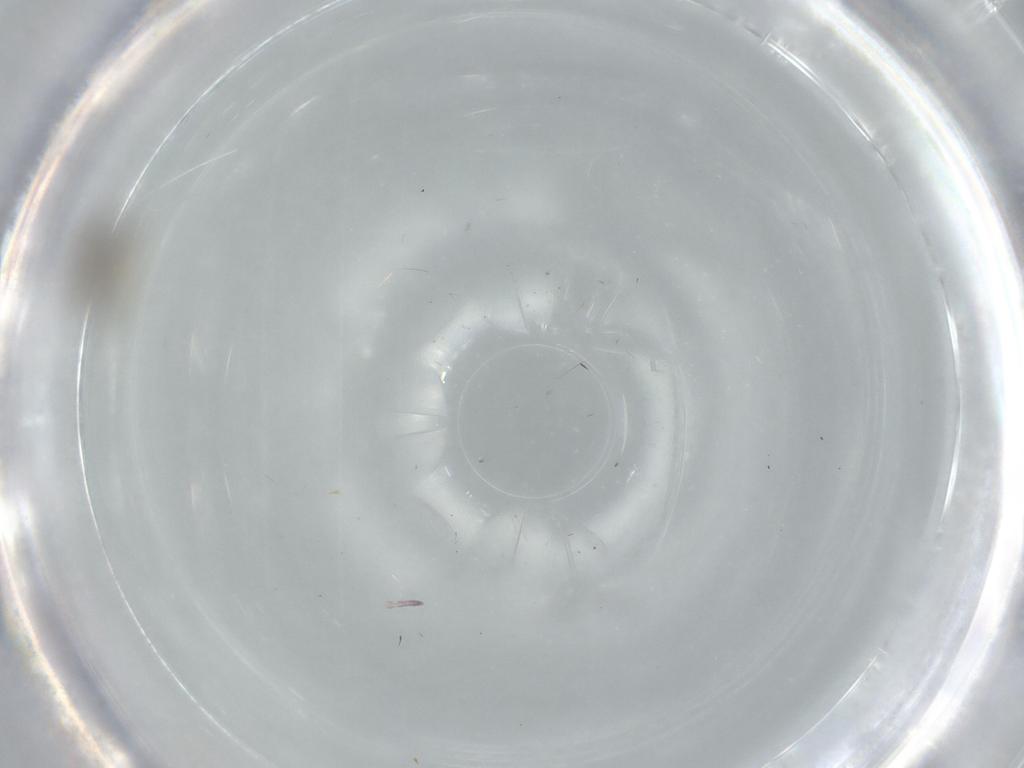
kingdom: Animalia
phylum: Arthropoda
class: Insecta
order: Diptera
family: Cecidomyiidae
